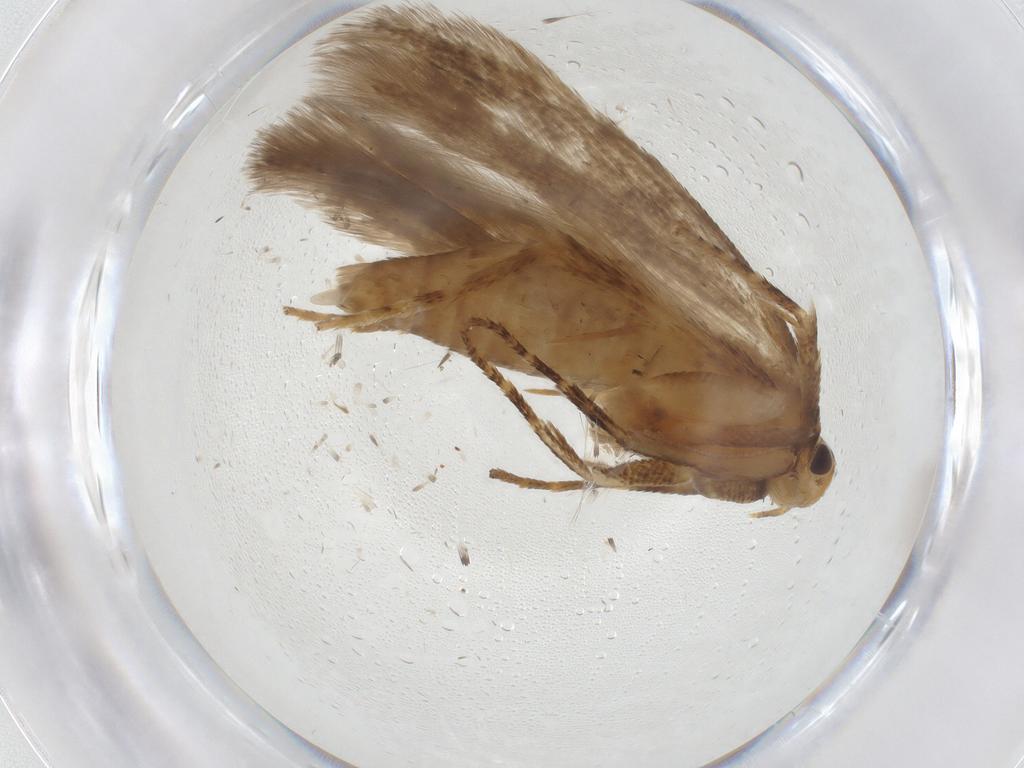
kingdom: Animalia
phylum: Arthropoda
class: Insecta
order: Lepidoptera
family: Gelechiidae
